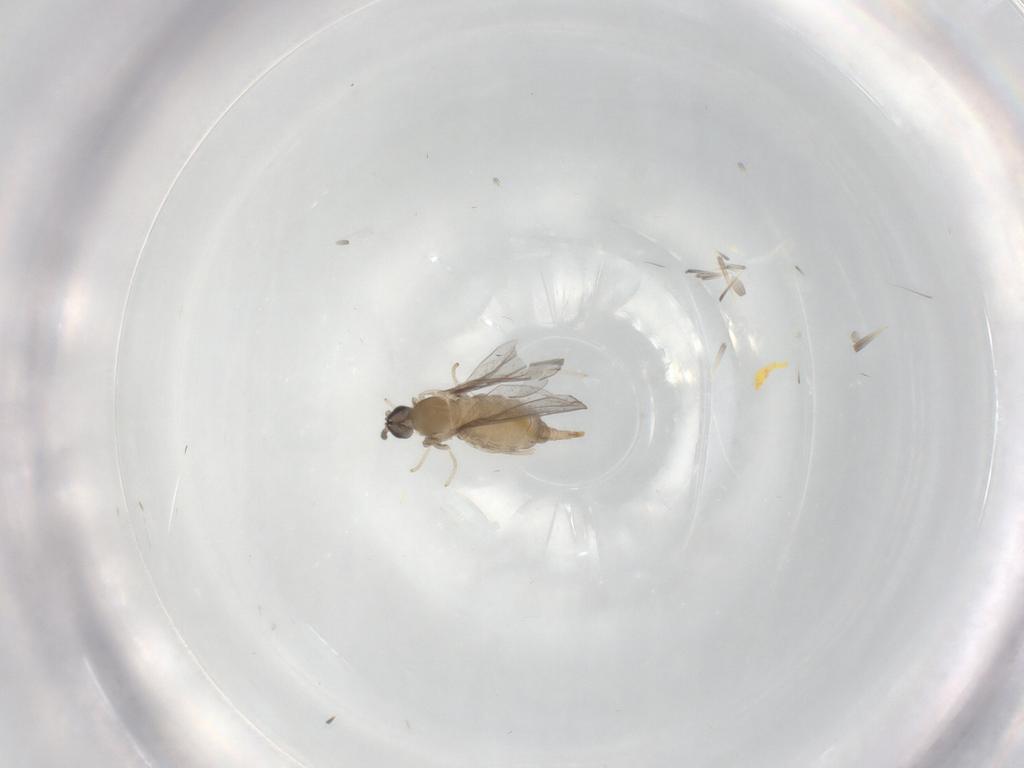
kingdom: Animalia
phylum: Arthropoda
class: Insecta
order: Diptera
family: Cecidomyiidae
